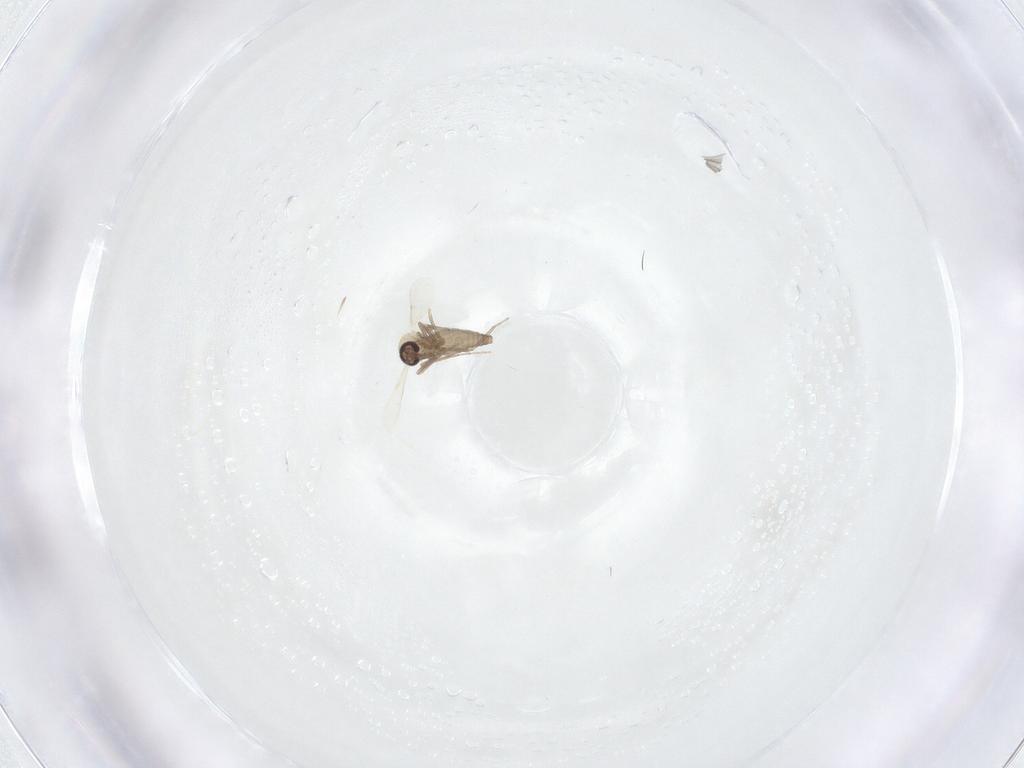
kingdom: Animalia
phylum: Arthropoda
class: Insecta
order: Diptera
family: Ceratopogonidae
